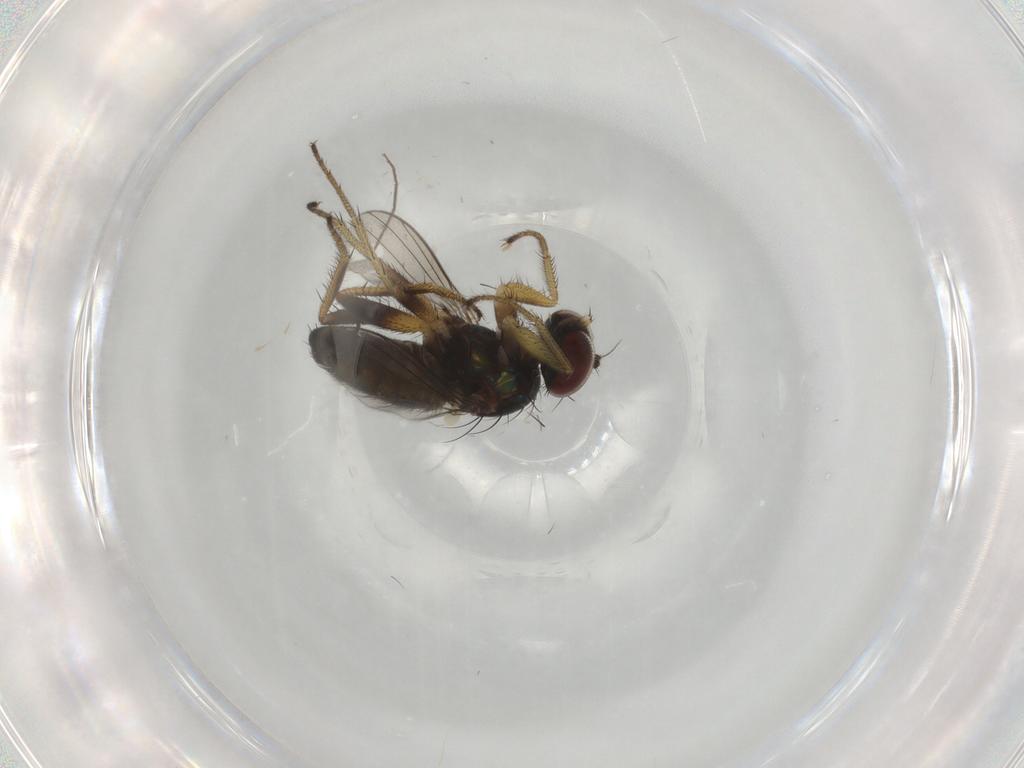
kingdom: Animalia
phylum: Arthropoda
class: Insecta
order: Diptera
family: Dolichopodidae
